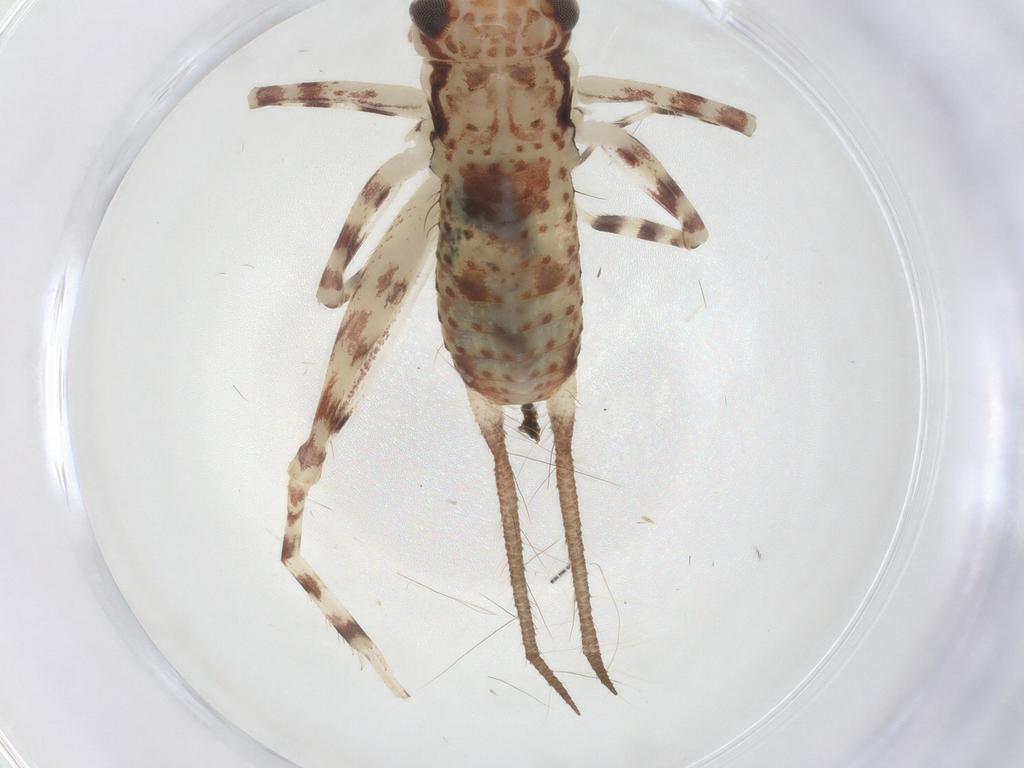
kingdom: Animalia
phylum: Arthropoda
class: Insecta
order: Orthoptera
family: Gryllidae
